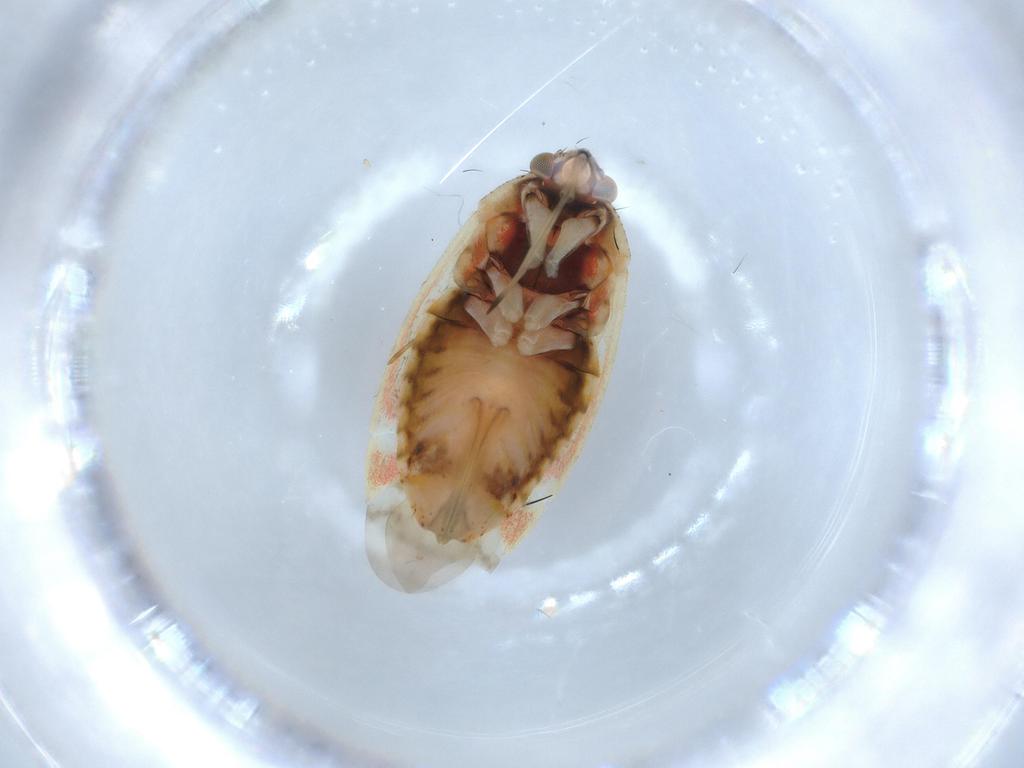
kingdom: Animalia
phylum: Arthropoda
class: Insecta
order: Hemiptera
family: Miridae
